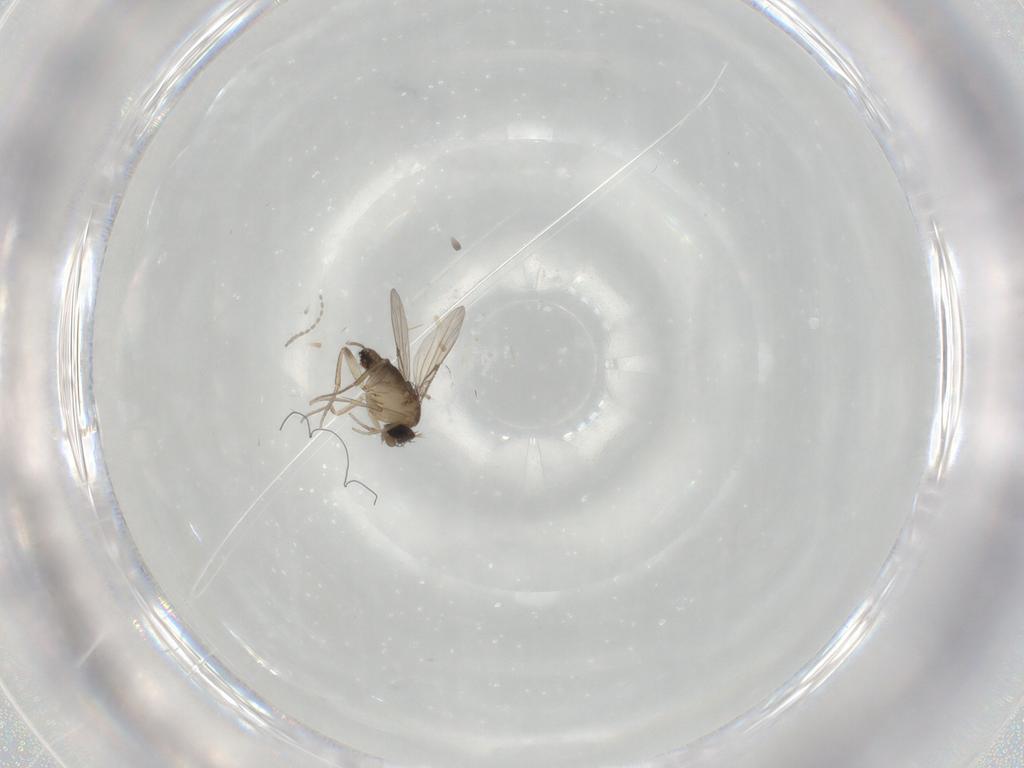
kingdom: Animalia
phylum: Arthropoda
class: Insecta
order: Diptera
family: Phoridae
